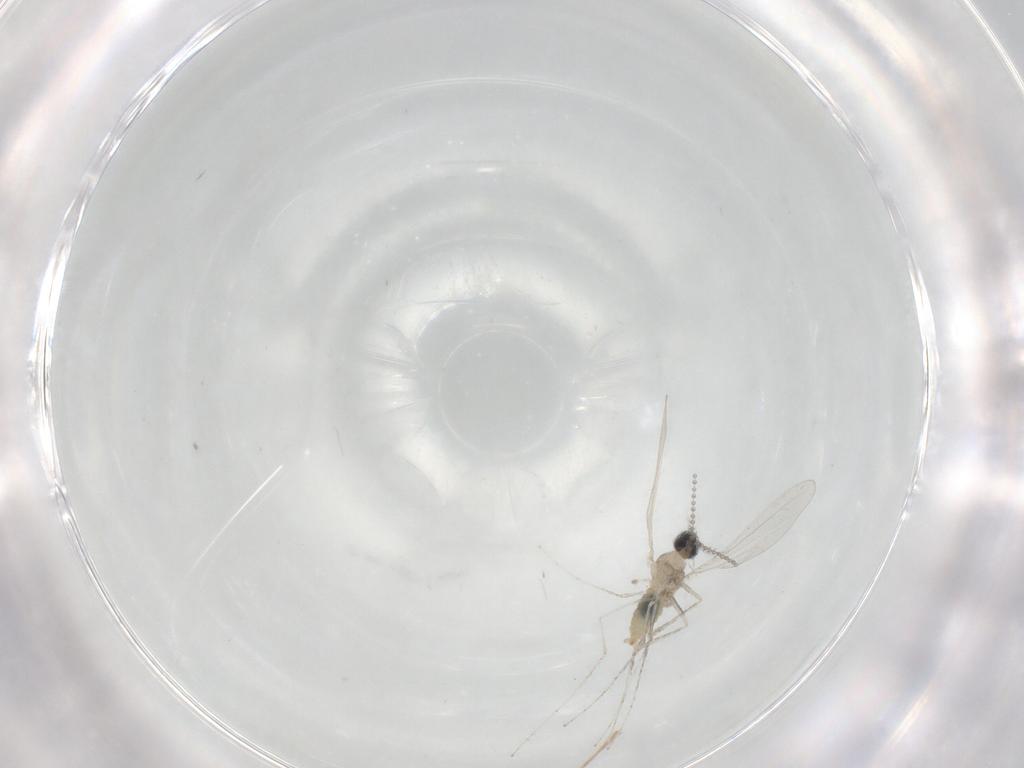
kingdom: Animalia
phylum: Arthropoda
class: Insecta
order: Diptera
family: Cecidomyiidae
